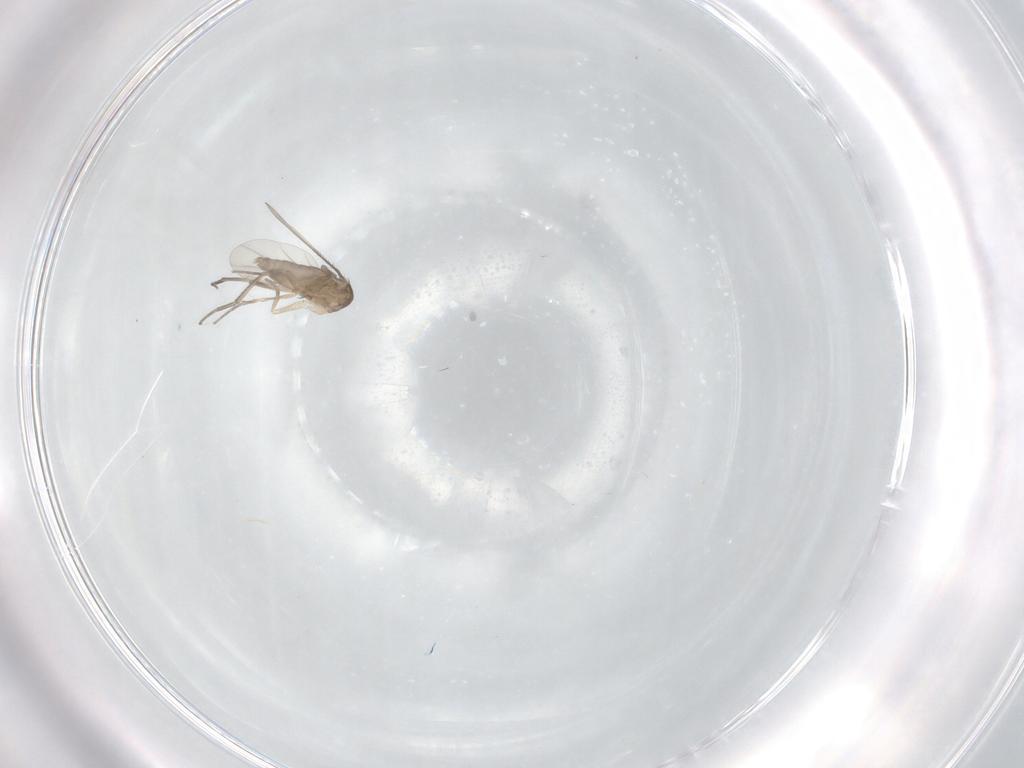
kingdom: Animalia
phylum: Arthropoda
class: Insecta
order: Diptera
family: Phoridae
